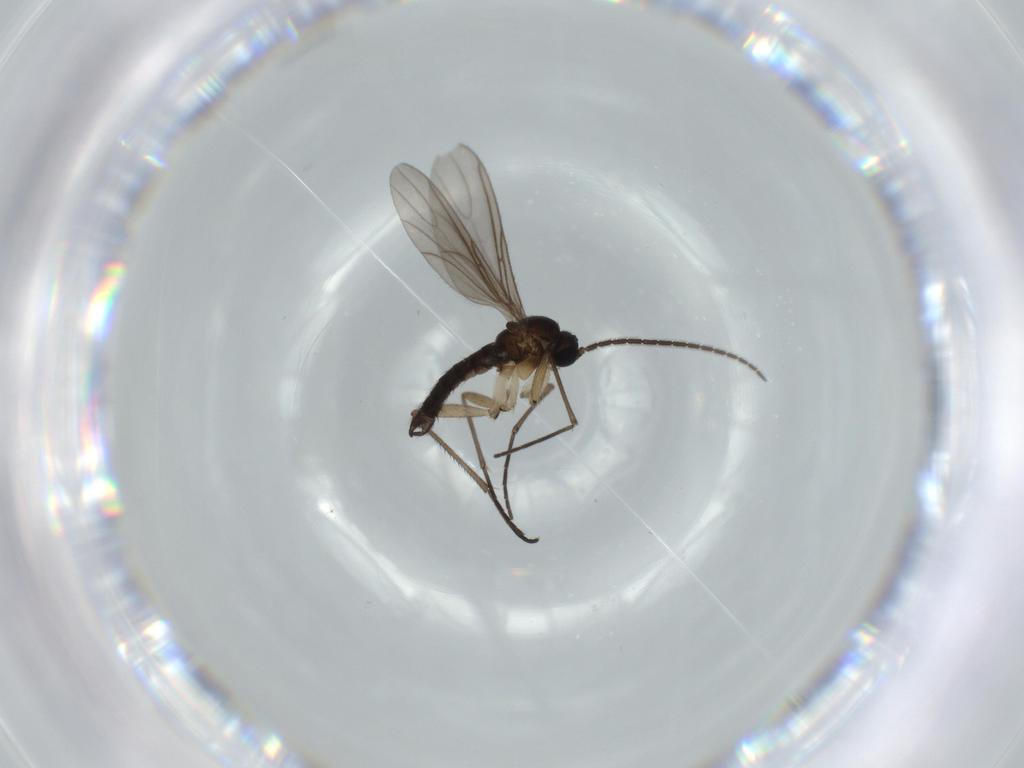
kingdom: Animalia
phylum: Arthropoda
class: Insecta
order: Diptera
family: Sciaridae
